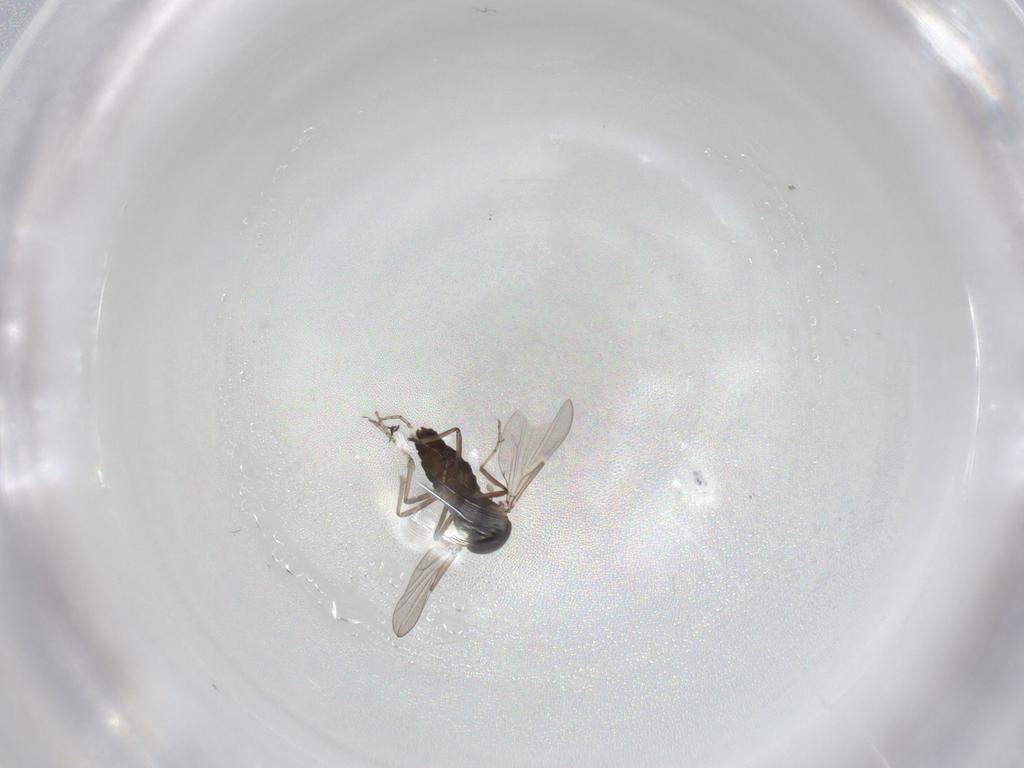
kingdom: Animalia
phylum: Arthropoda
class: Insecta
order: Diptera
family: Ceratopogonidae
